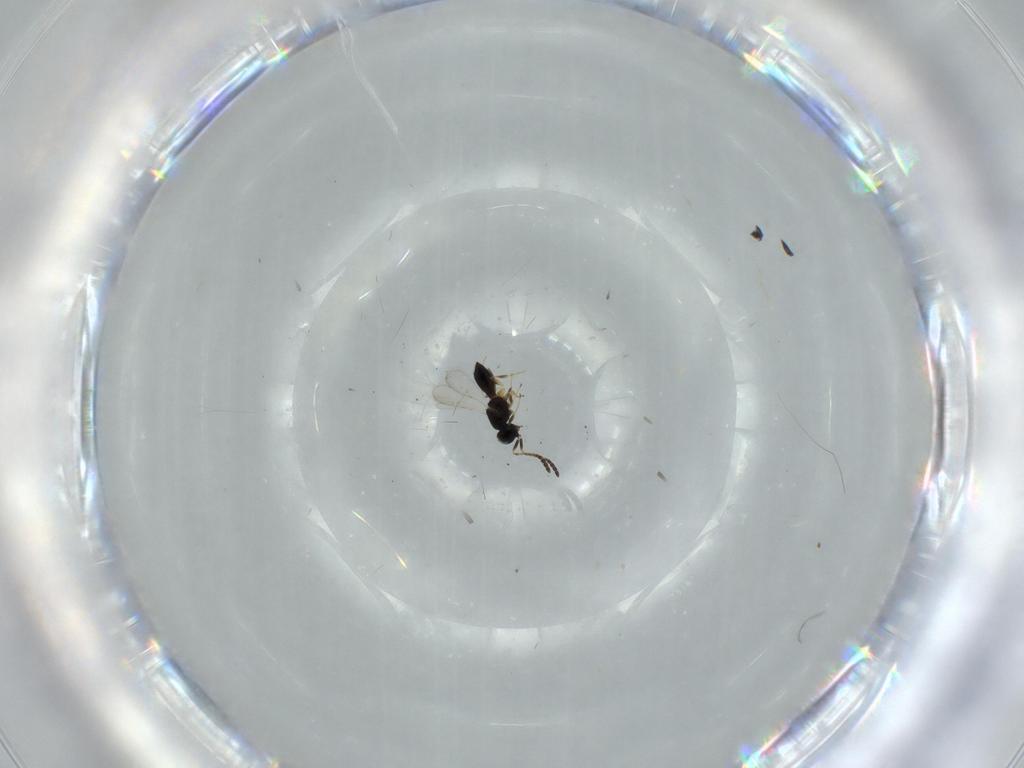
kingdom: Animalia
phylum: Arthropoda
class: Insecta
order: Hymenoptera
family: Scelionidae
